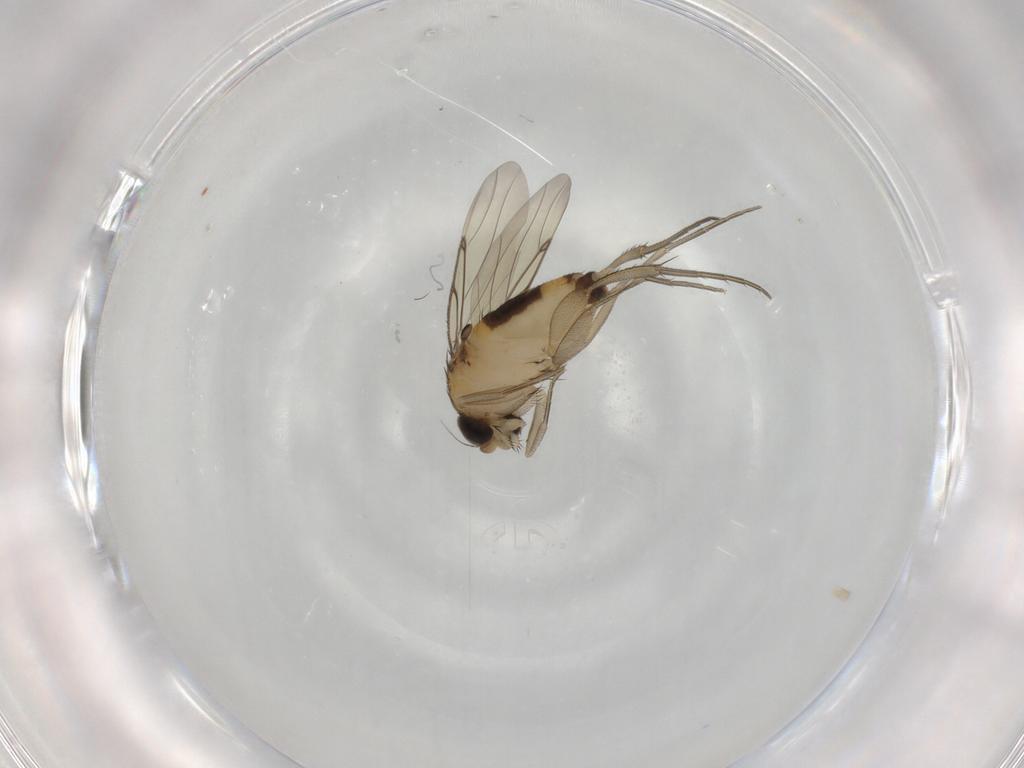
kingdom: Animalia
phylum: Arthropoda
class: Insecta
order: Diptera
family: Phoridae
